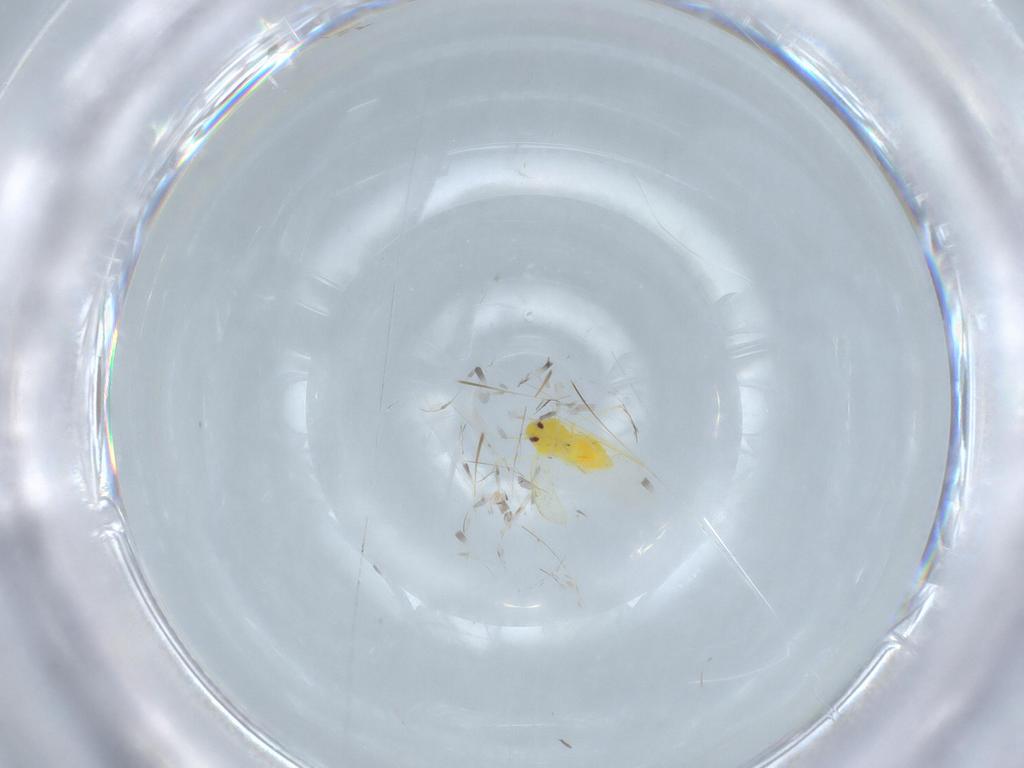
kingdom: Animalia
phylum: Arthropoda
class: Insecta
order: Hemiptera
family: Aleyrodidae
